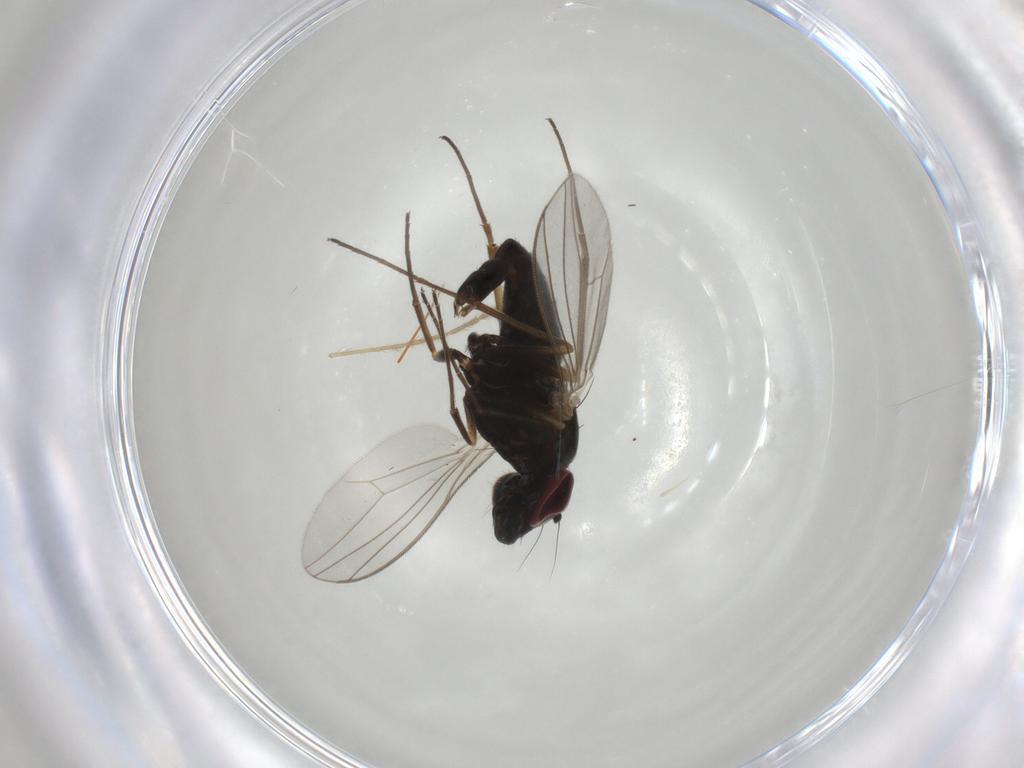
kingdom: Animalia
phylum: Arthropoda
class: Insecta
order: Diptera
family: Dolichopodidae
